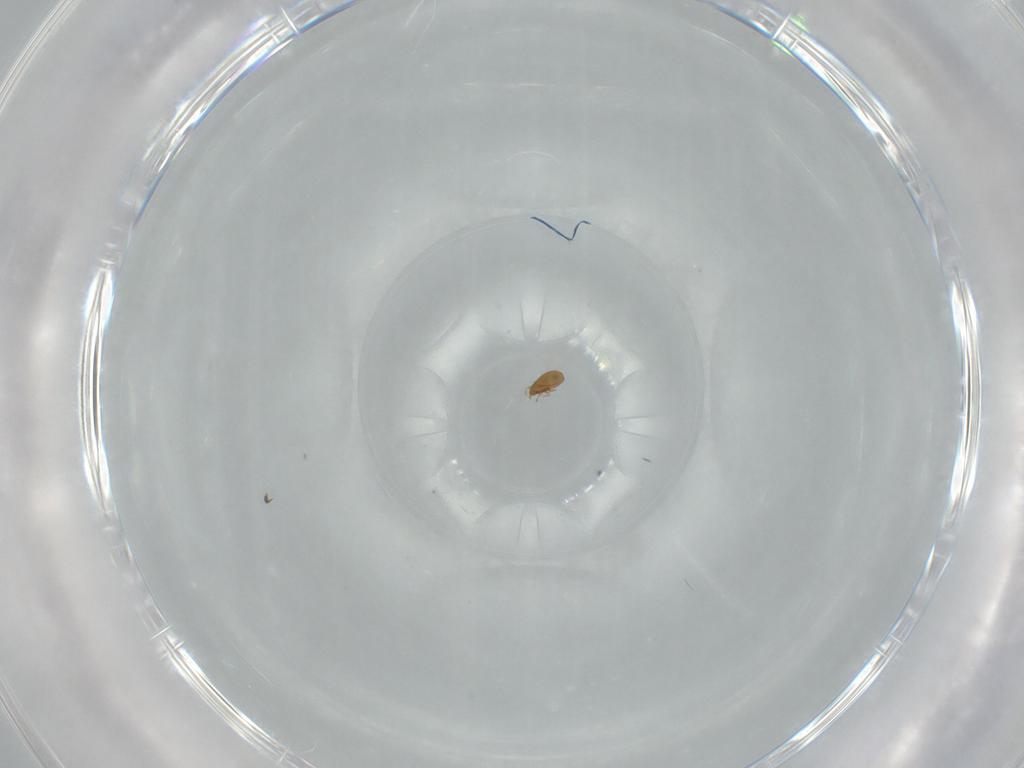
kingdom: Animalia
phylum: Arthropoda
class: Arachnida
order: Sarcoptiformes
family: Oribatulidae
